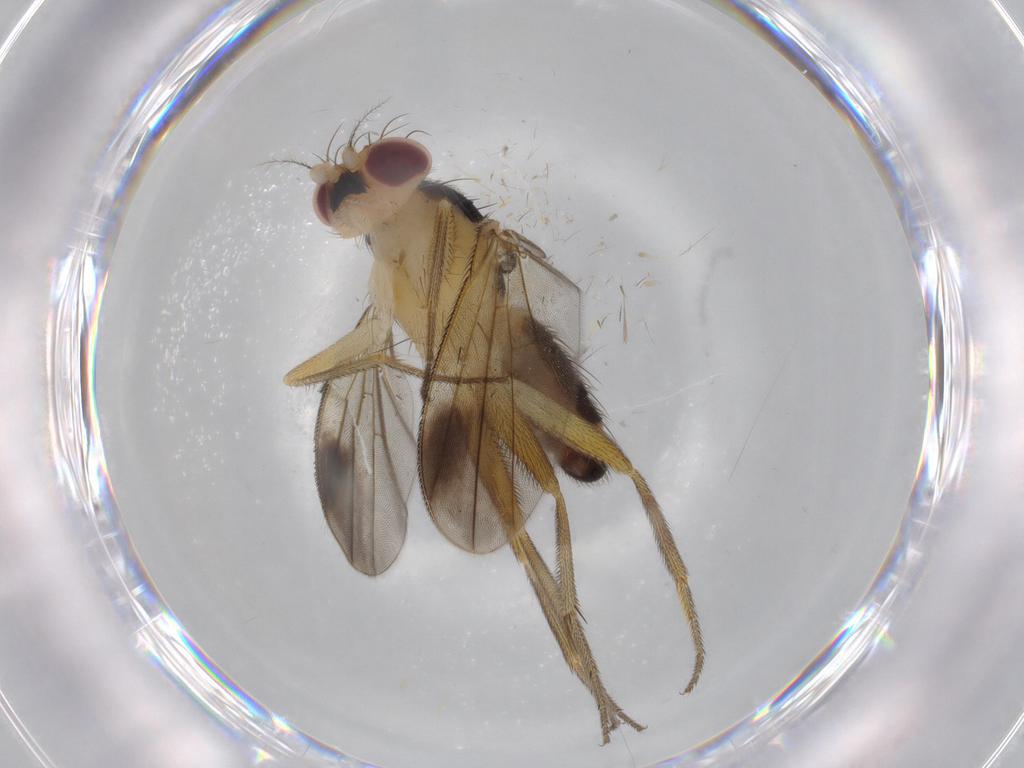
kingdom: Animalia
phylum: Arthropoda
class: Insecta
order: Diptera
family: Clusiidae
